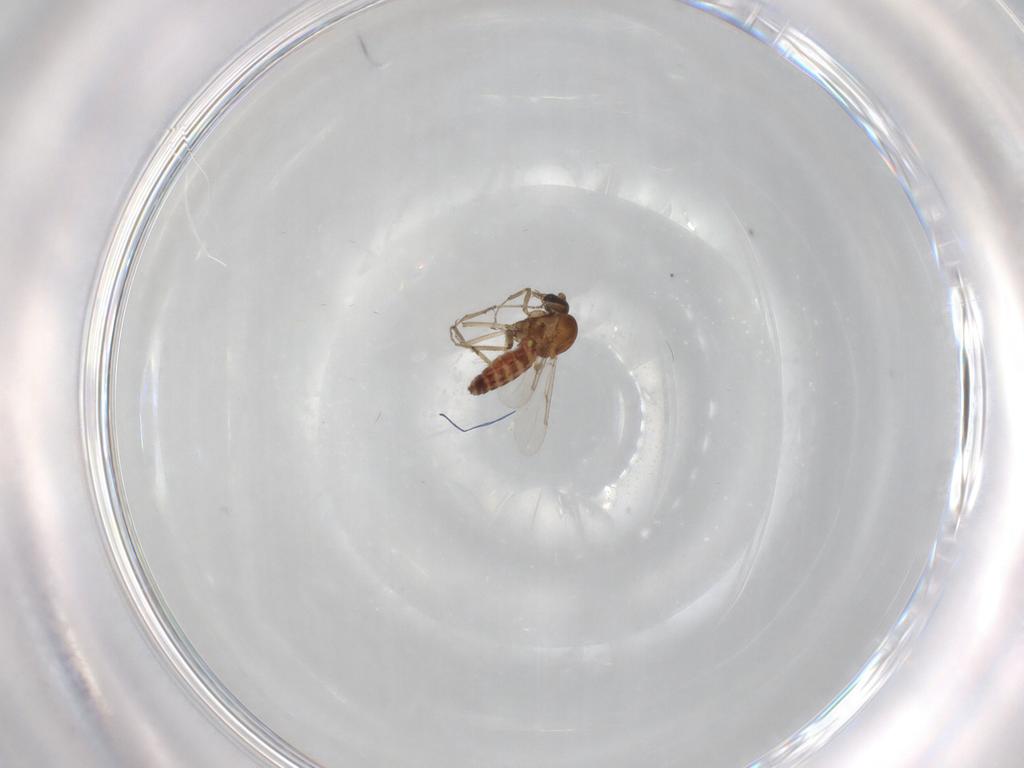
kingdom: Animalia
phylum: Arthropoda
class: Insecta
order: Diptera
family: Ceratopogonidae
